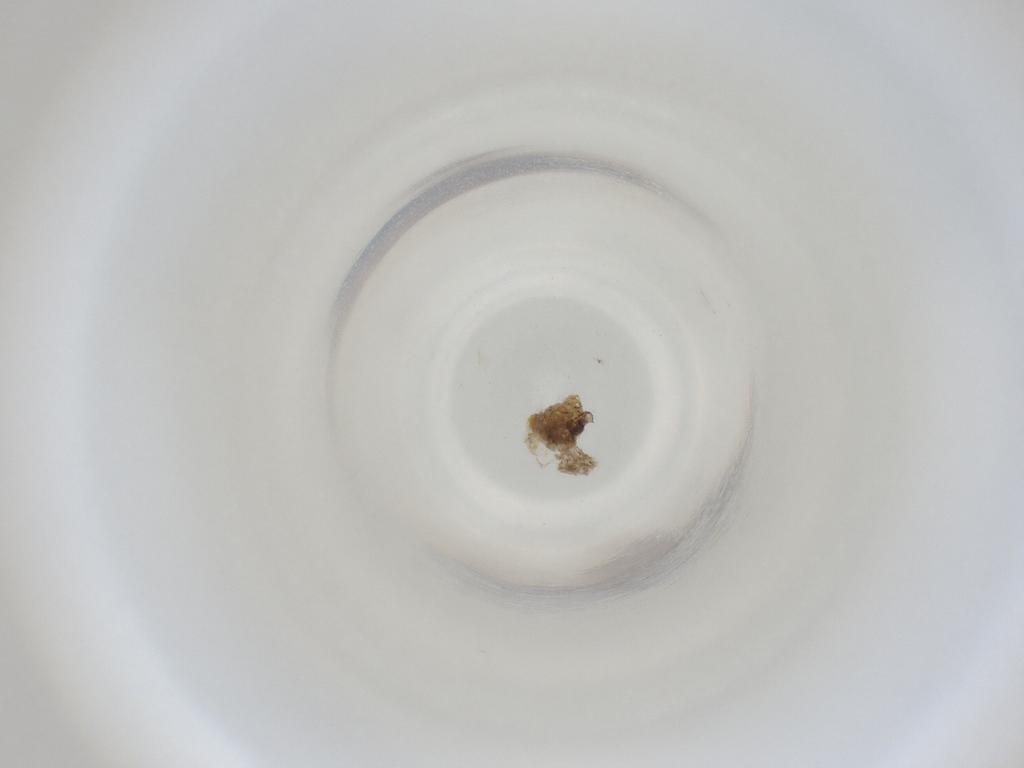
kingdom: Animalia
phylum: Arthropoda
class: Insecta
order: Diptera
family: Cecidomyiidae
